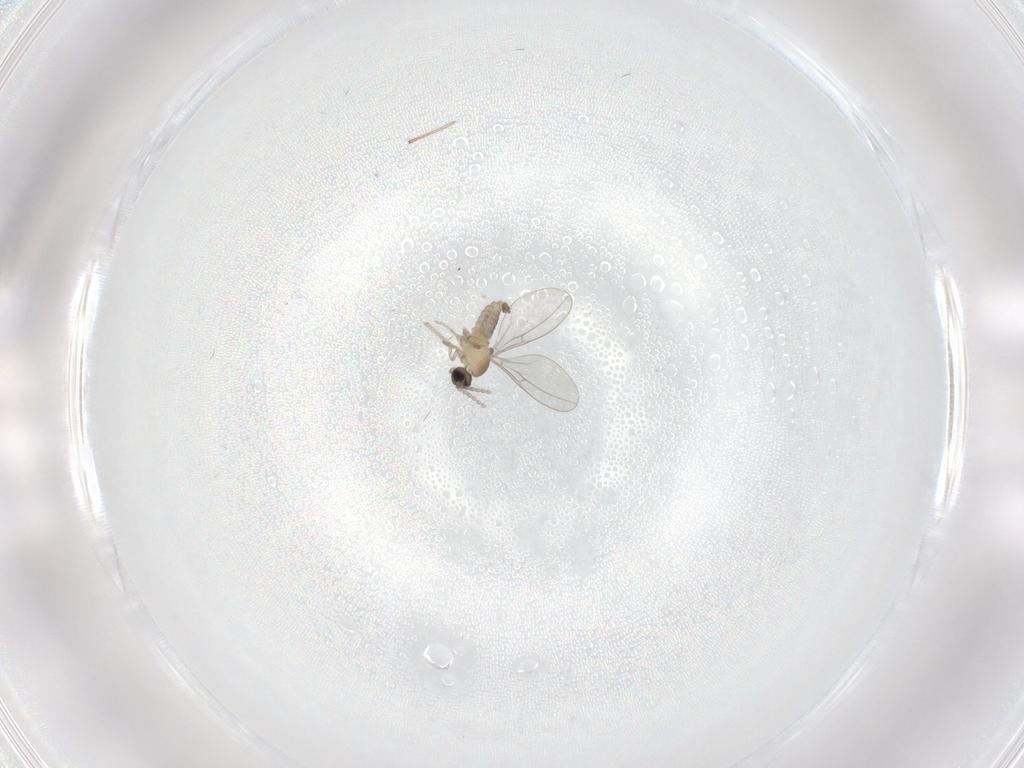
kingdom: Animalia
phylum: Arthropoda
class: Insecta
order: Diptera
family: Cecidomyiidae
